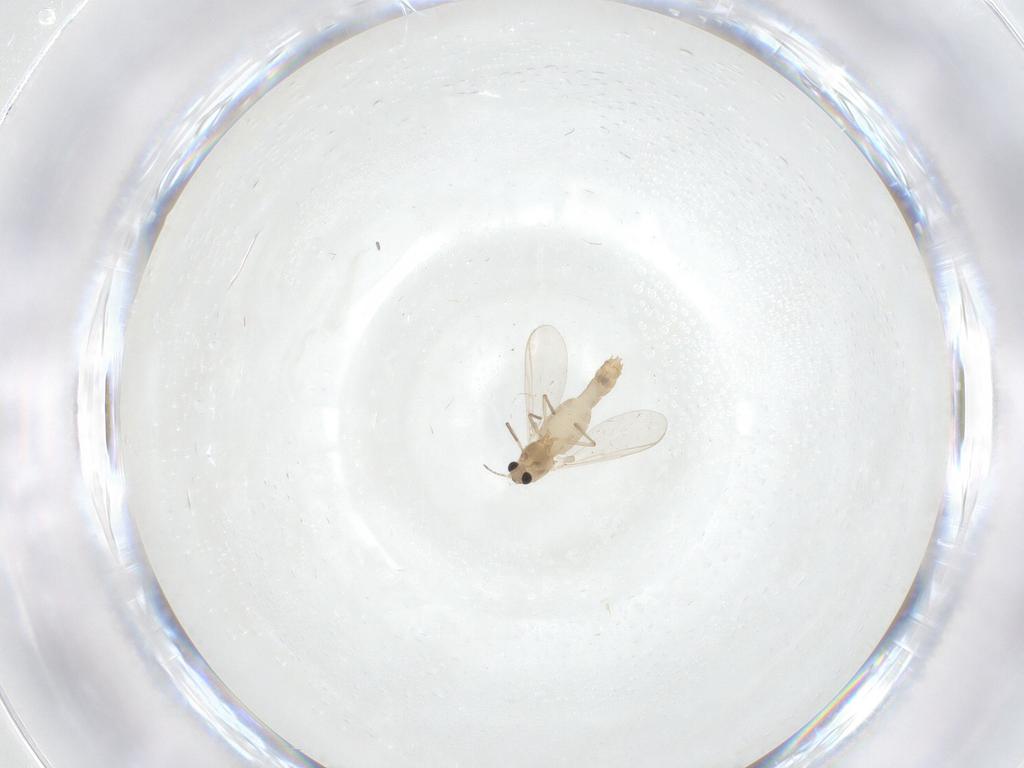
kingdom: Animalia
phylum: Arthropoda
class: Insecta
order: Diptera
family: Chironomidae
